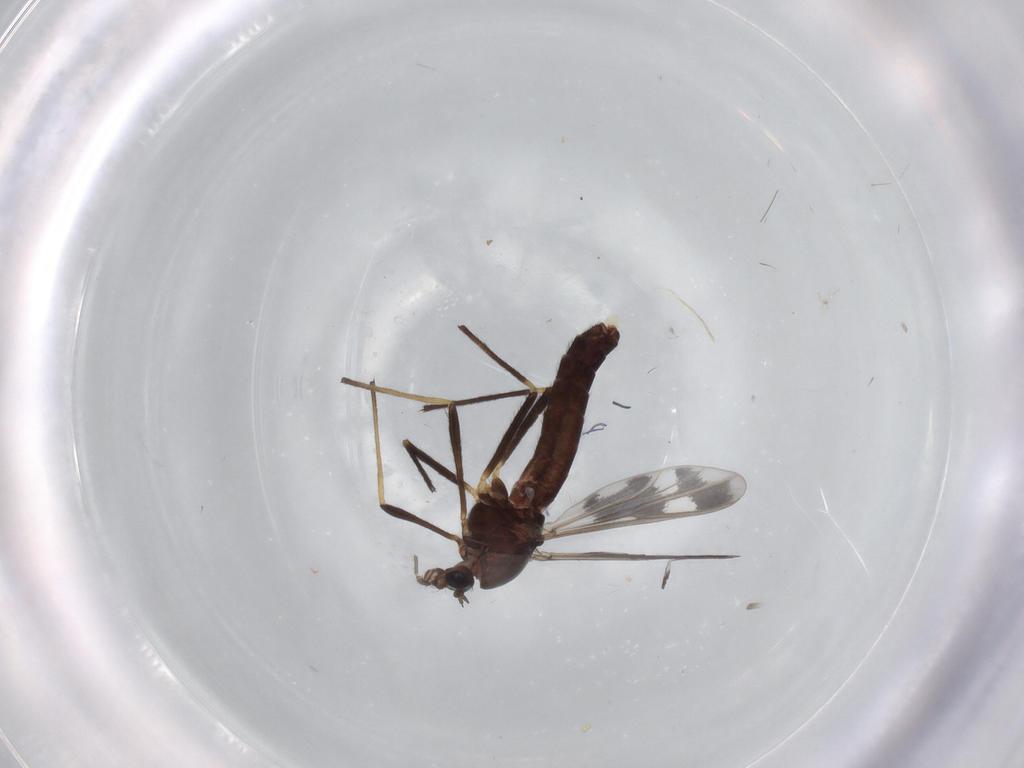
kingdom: Animalia
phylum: Arthropoda
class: Insecta
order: Diptera
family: Chironomidae
